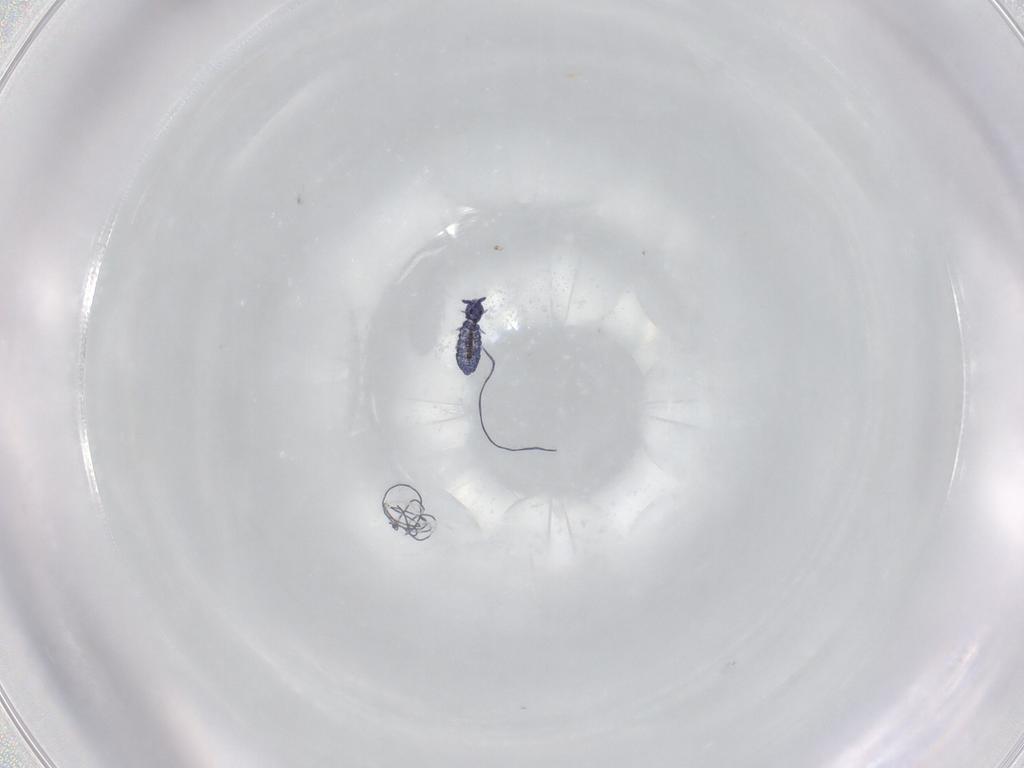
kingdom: Animalia
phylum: Arthropoda
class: Collembola
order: Poduromorpha
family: Hypogastruridae
